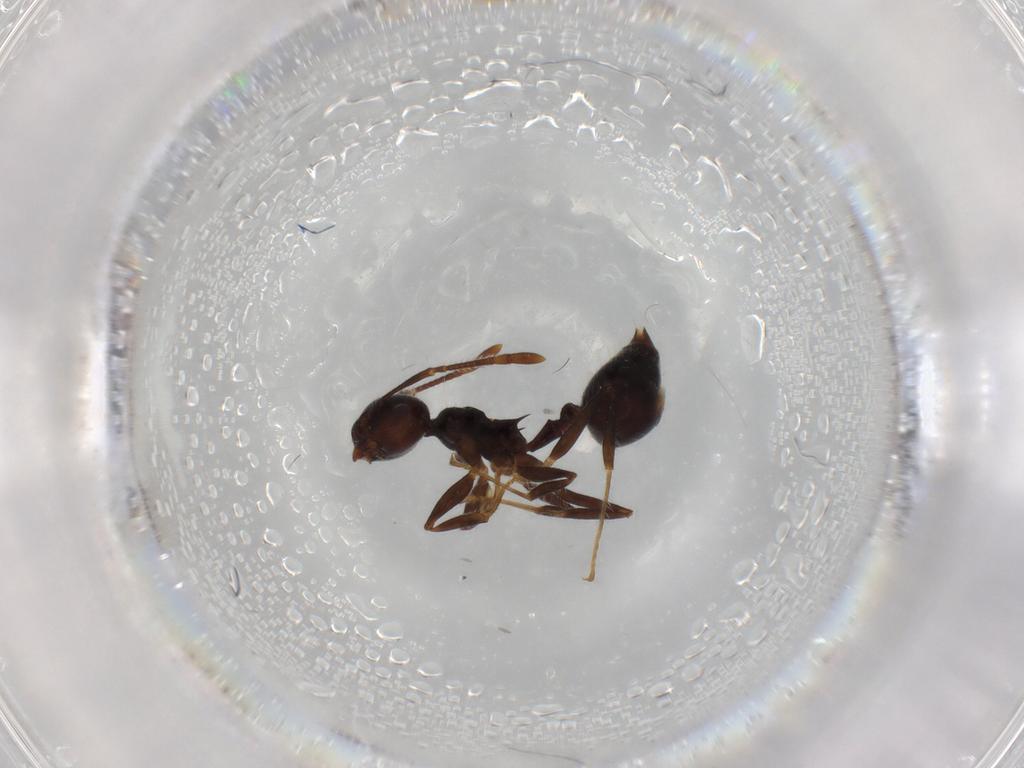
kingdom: Animalia
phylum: Arthropoda
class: Insecta
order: Hymenoptera
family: Formicidae
